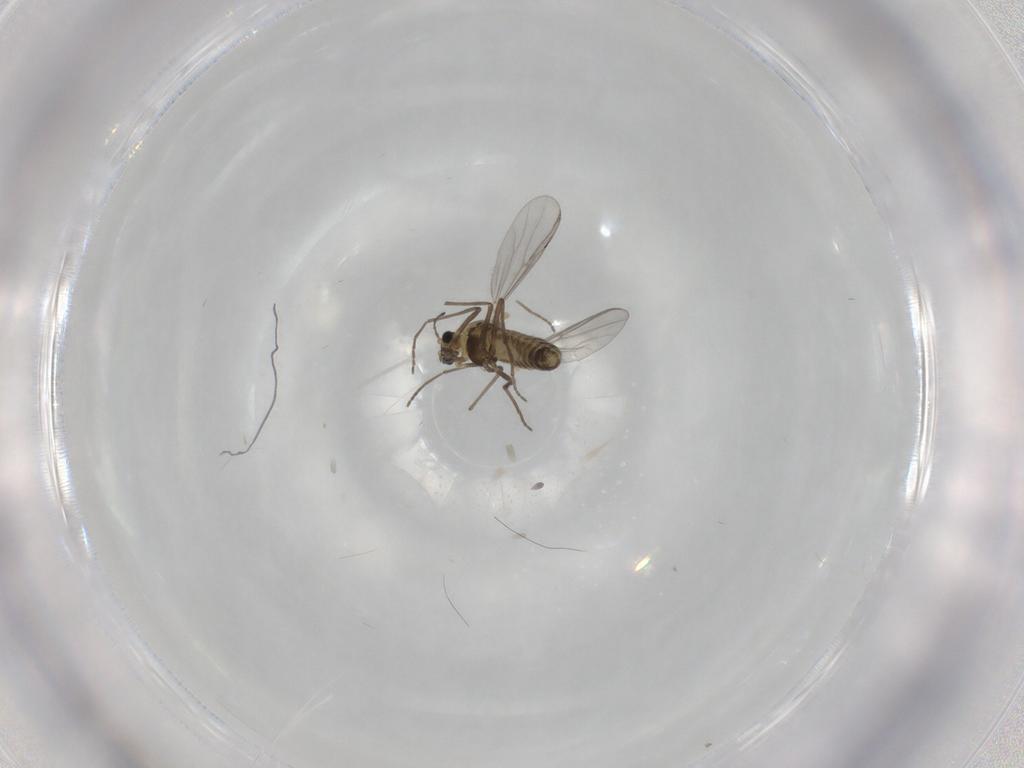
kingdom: Animalia
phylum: Arthropoda
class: Insecta
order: Diptera
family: Chironomidae
